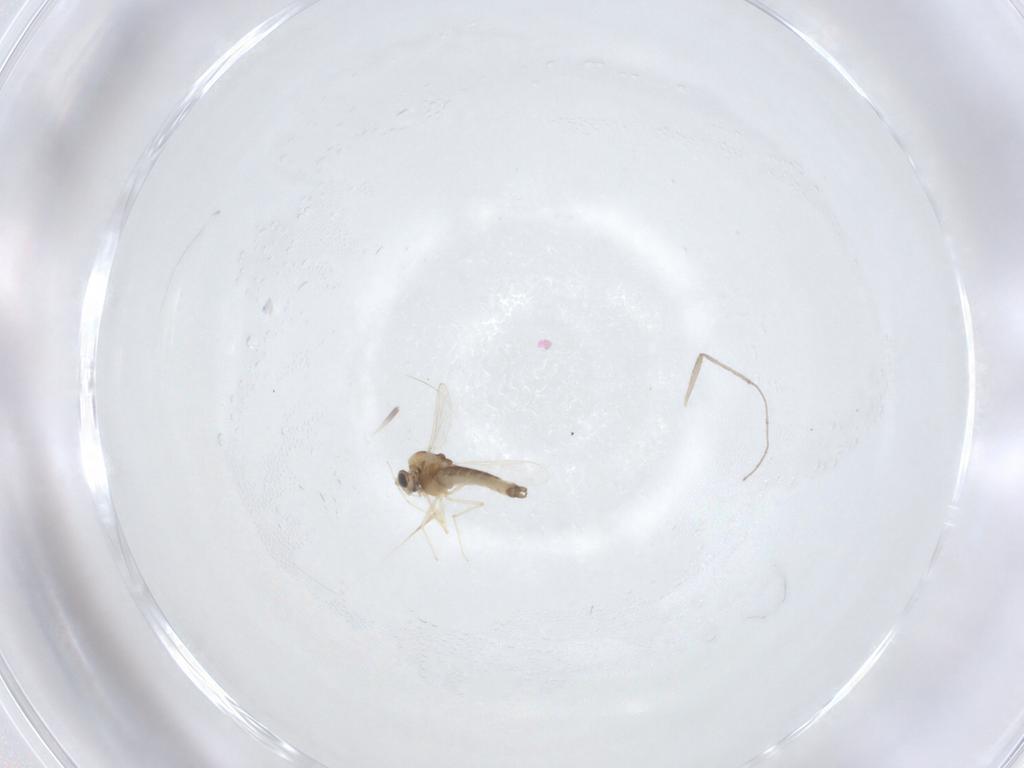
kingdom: Animalia
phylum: Arthropoda
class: Insecta
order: Diptera
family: Chironomidae
